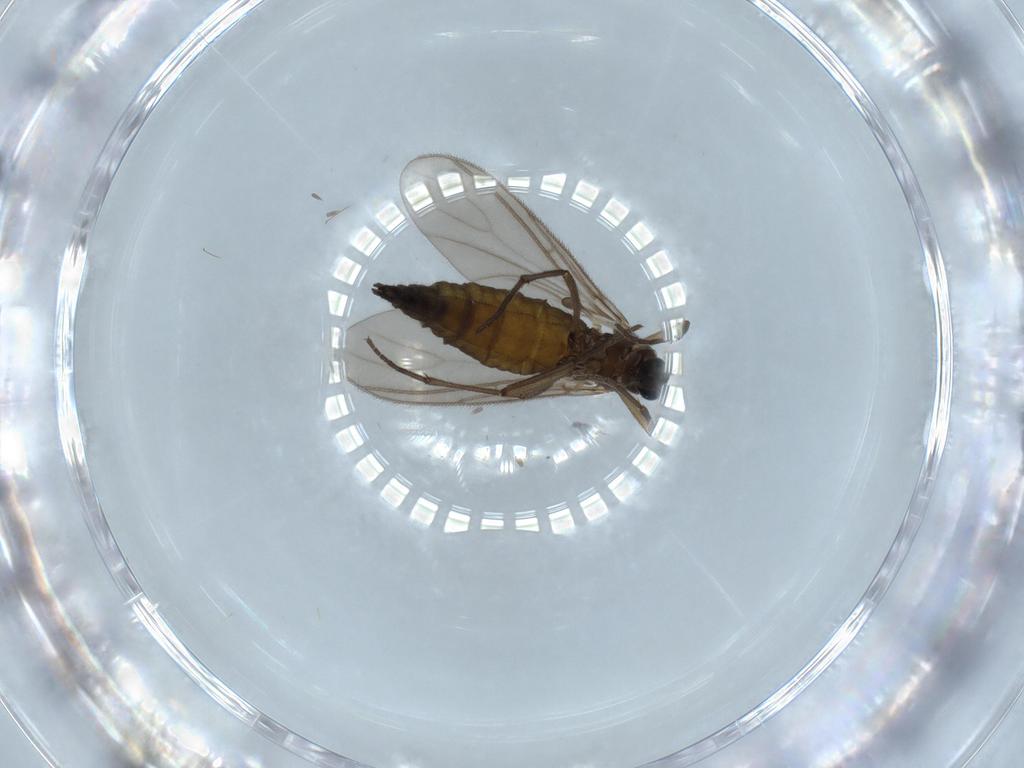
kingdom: Animalia
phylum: Arthropoda
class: Insecta
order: Diptera
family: Sciaridae
